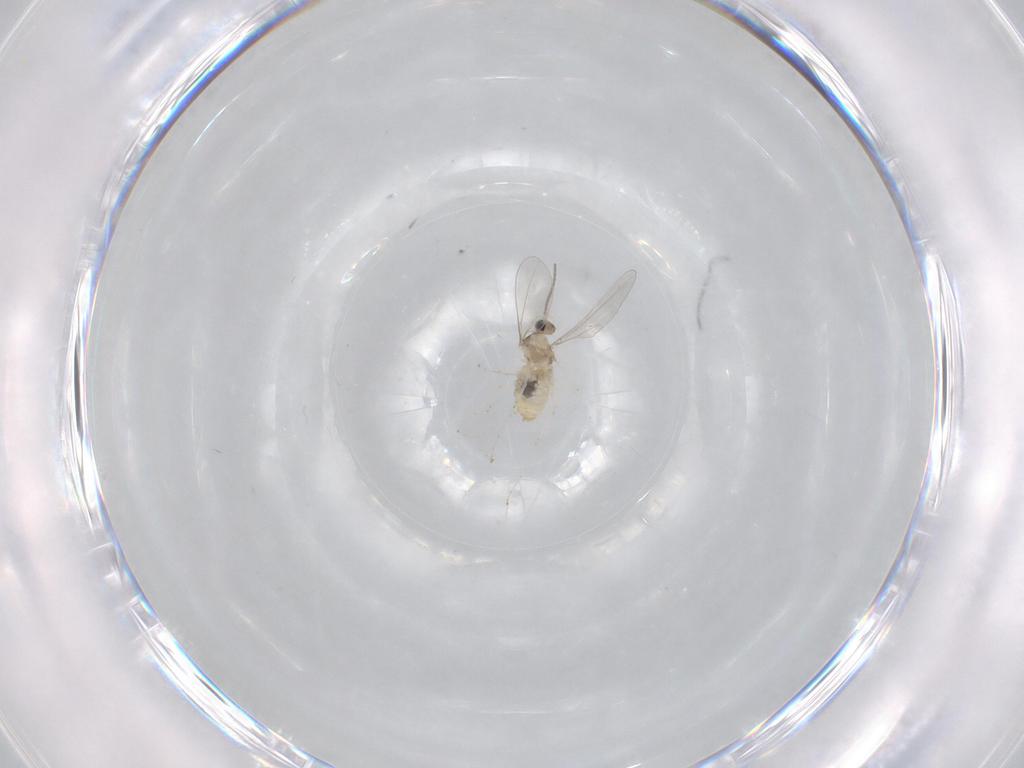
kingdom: Animalia
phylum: Arthropoda
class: Insecta
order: Diptera
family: Cecidomyiidae
